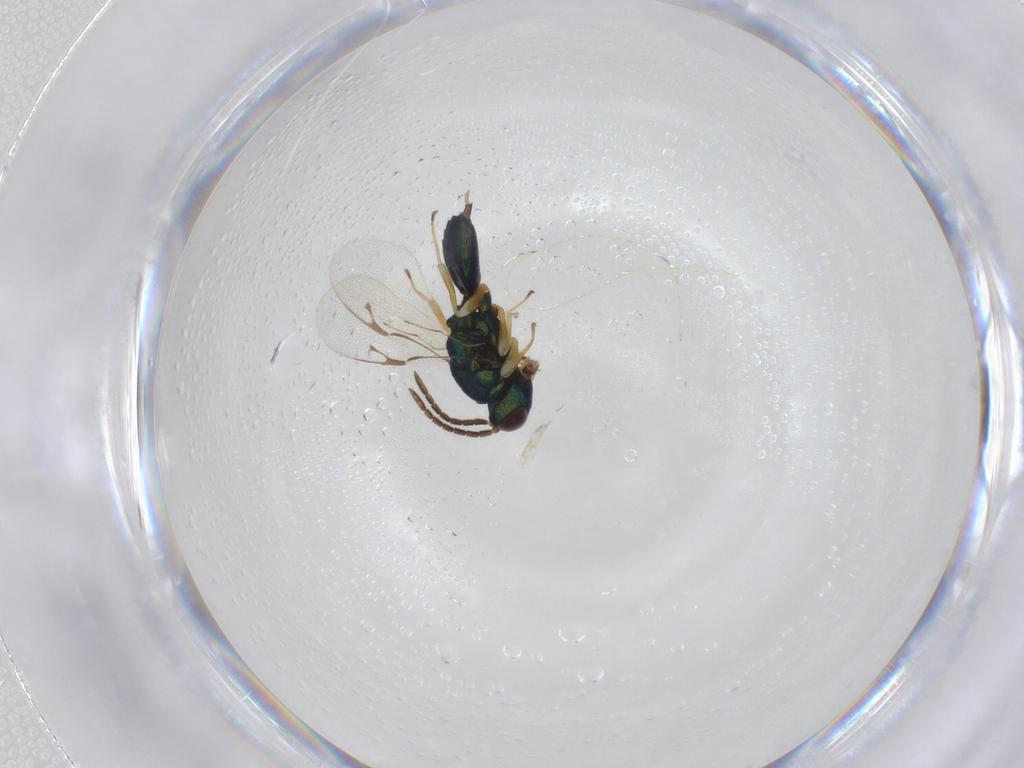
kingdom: Animalia
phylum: Arthropoda
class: Insecta
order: Hymenoptera
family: Pteromalidae
